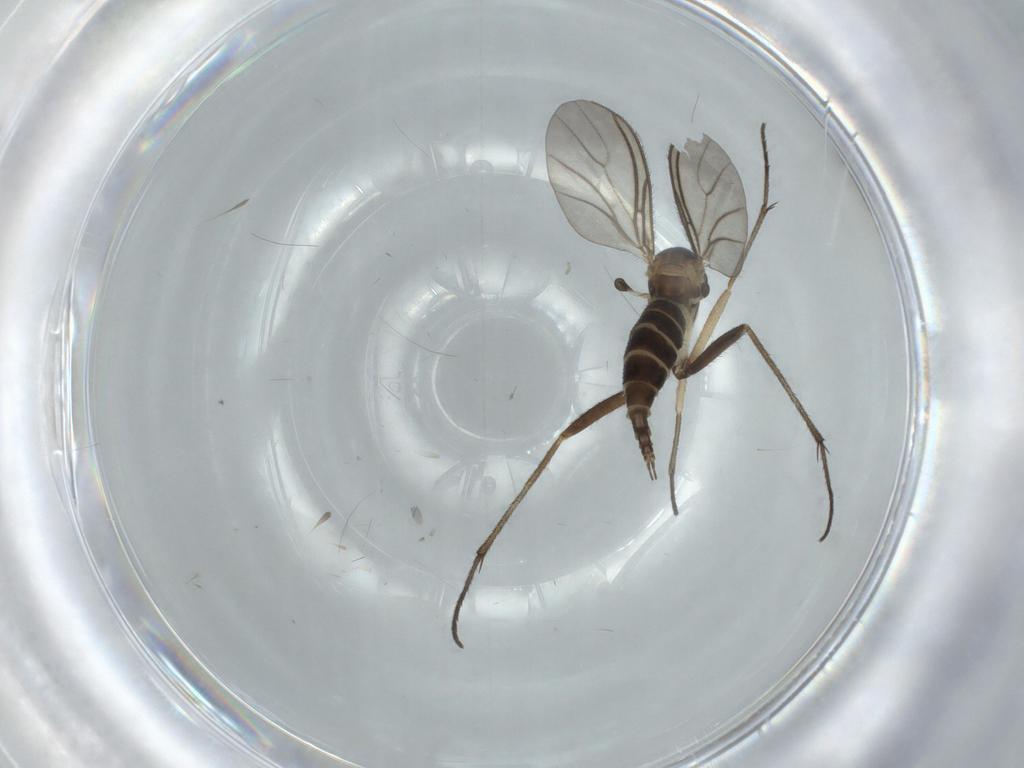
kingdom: Animalia
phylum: Arthropoda
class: Insecta
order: Diptera
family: Sciaridae
